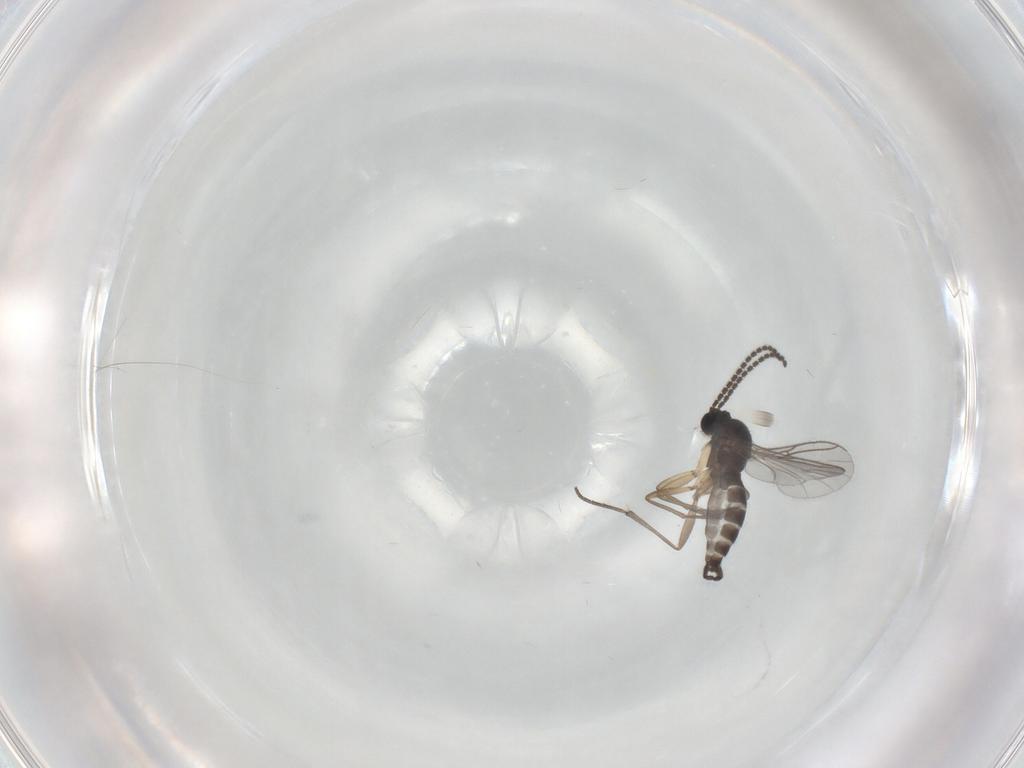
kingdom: Animalia
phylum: Arthropoda
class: Insecta
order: Diptera
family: Sciaridae
